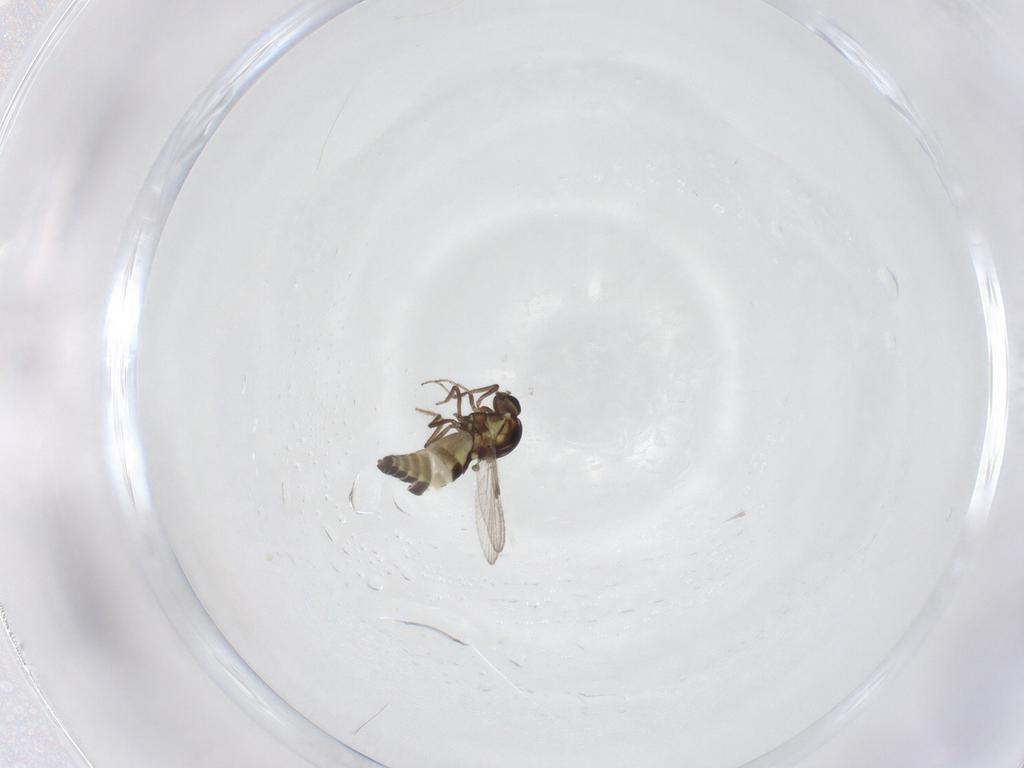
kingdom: Animalia
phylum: Arthropoda
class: Insecta
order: Diptera
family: Ceratopogonidae
